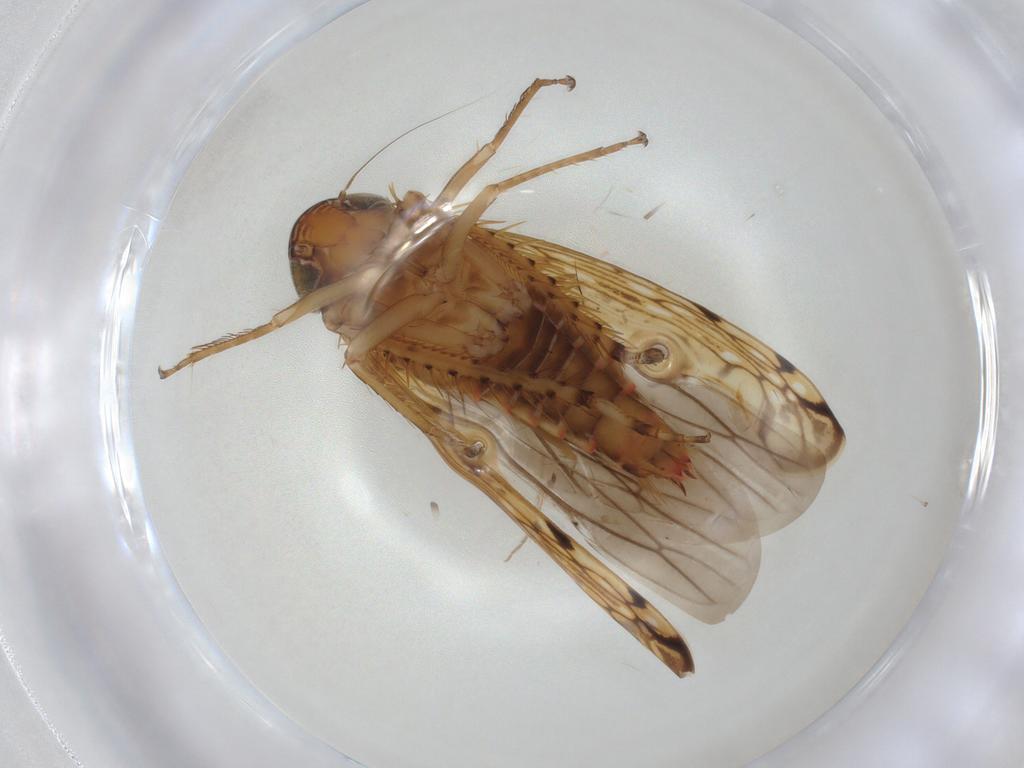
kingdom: Animalia
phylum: Arthropoda
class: Insecta
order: Hemiptera
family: Cicadellidae
